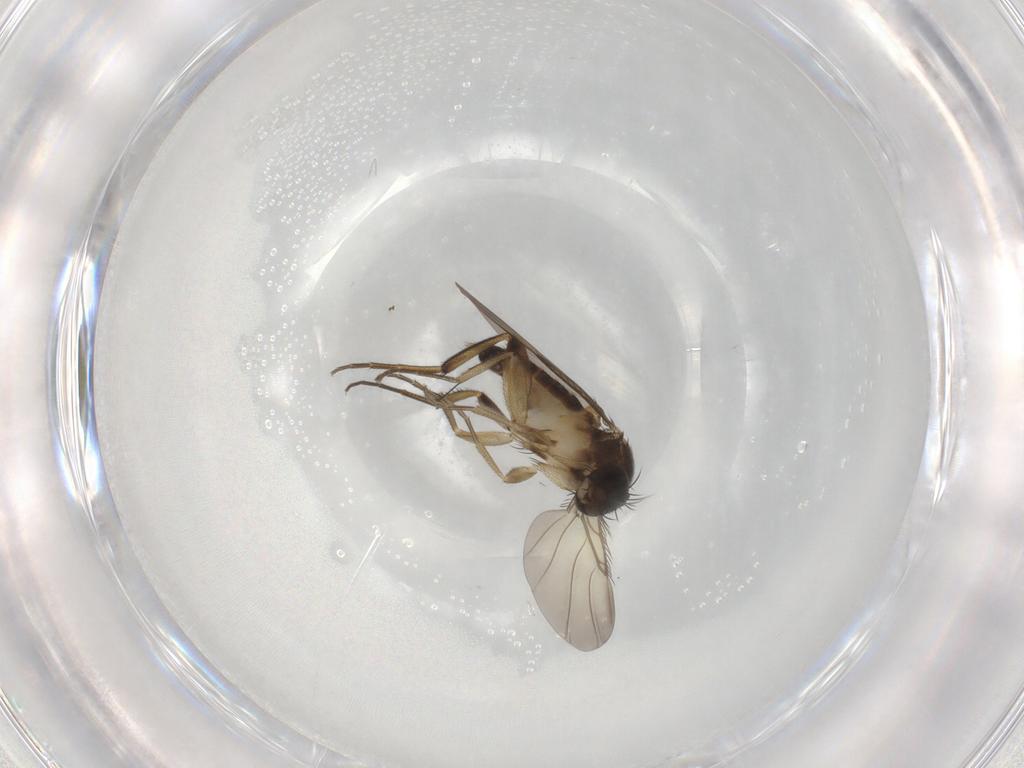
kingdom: Animalia
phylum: Arthropoda
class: Insecta
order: Diptera
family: Phoridae
